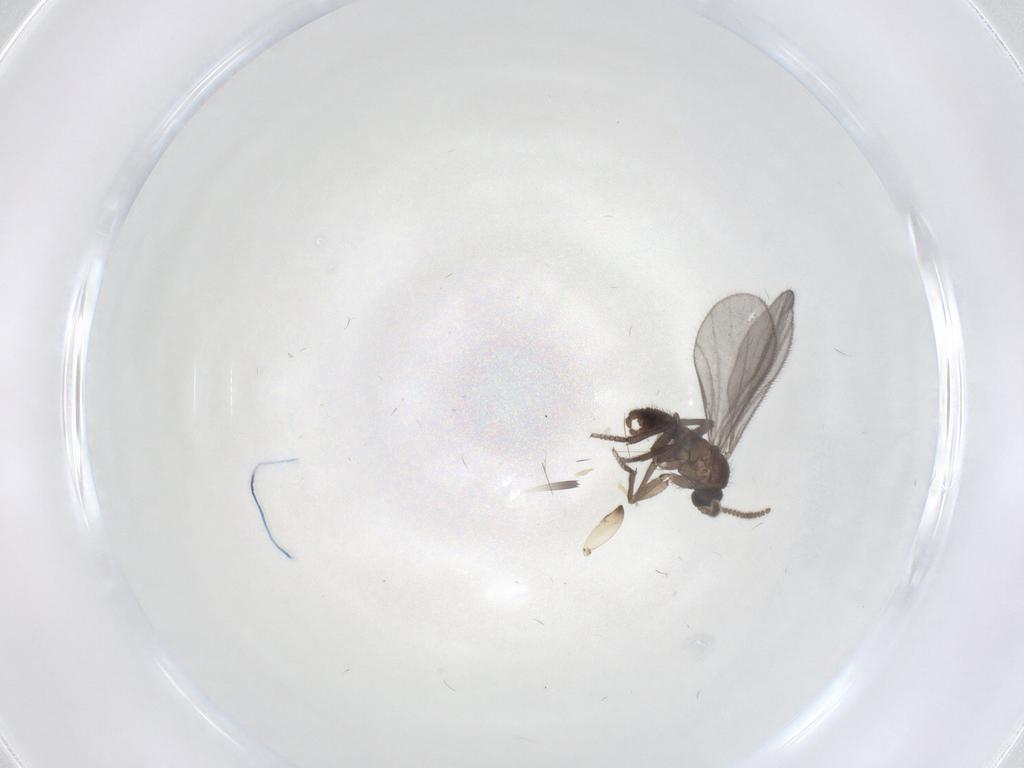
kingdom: Animalia
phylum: Arthropoda
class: Insecta
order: Diptera
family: Sciaridae
